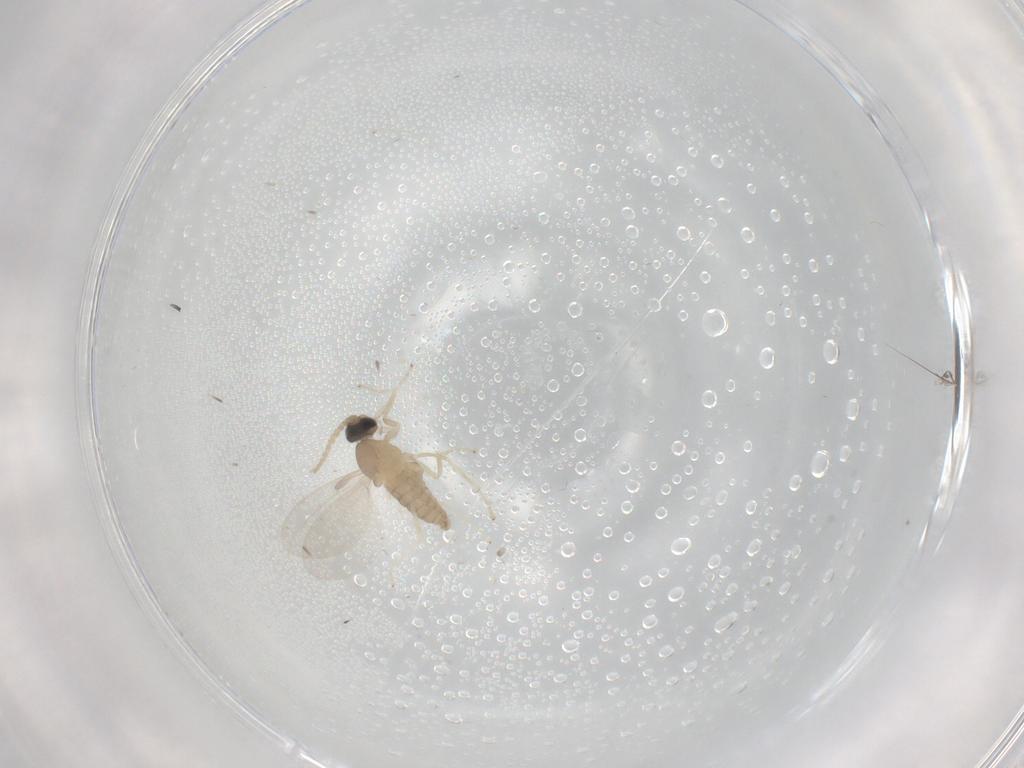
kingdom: Animalia
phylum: Arthropoda
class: Insecta
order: Diptera
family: Cecidomyiidae
